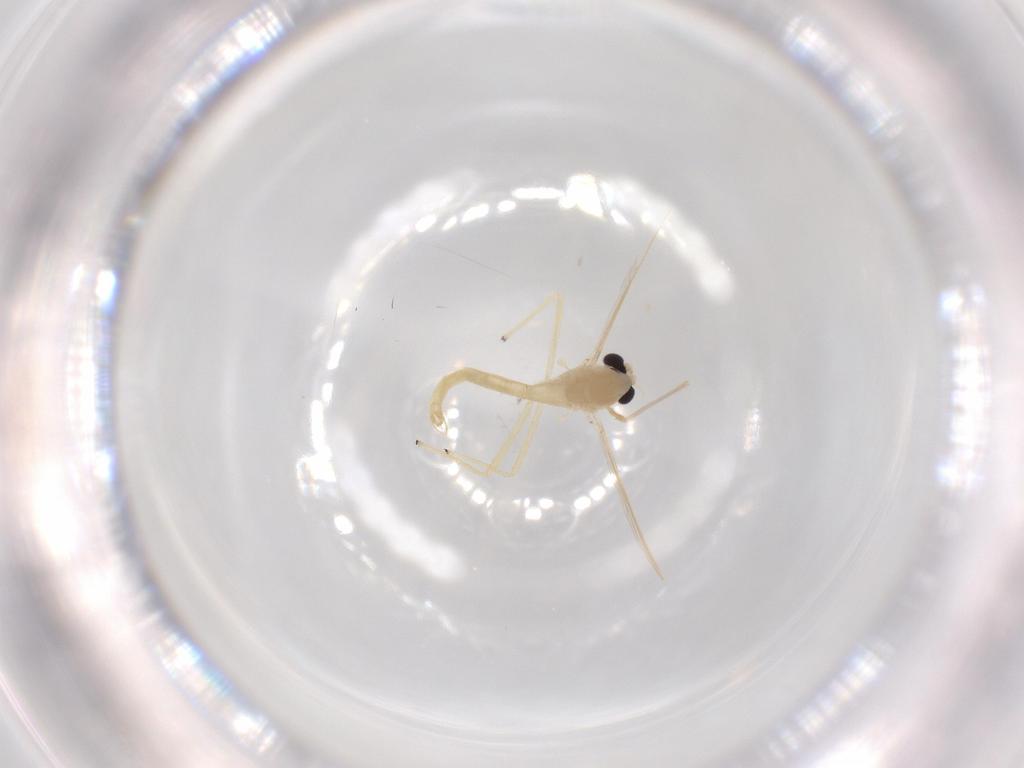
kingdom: Animalia
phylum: Arthropoda
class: Insecta
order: Diptera
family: Chironomidae
